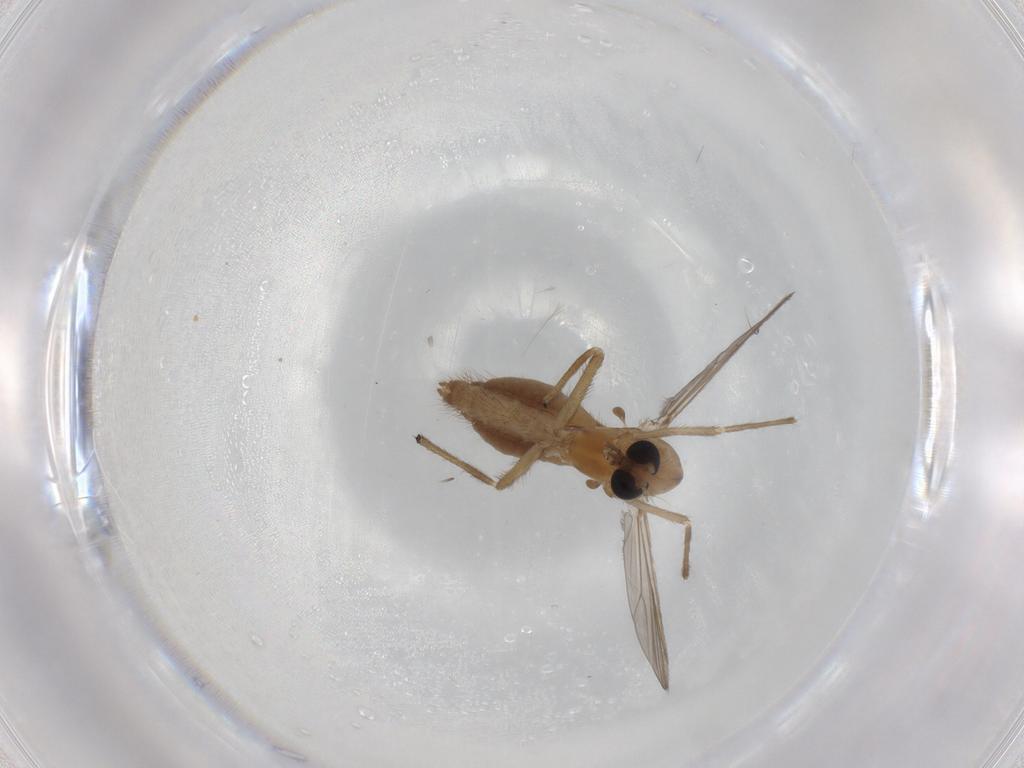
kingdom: Animalia
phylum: Arthropoda
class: Insecta
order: Diptera
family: Chironomidae
